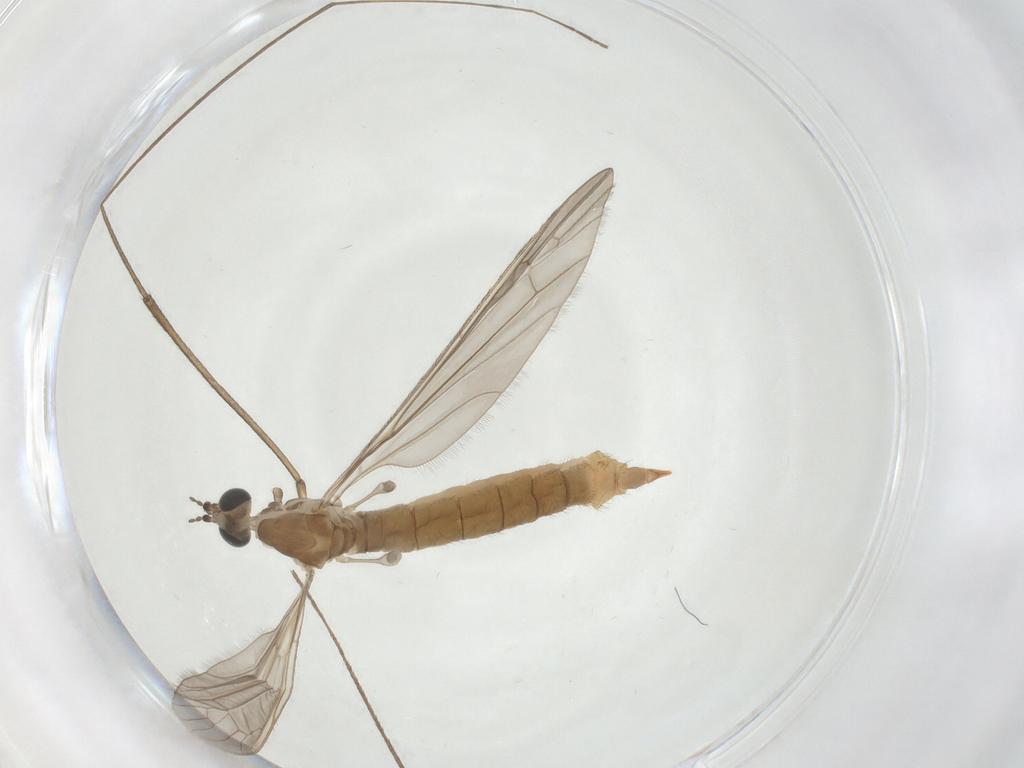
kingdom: Animalia
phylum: Arthropoda
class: Insecta
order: Diptera
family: Limoniidae
